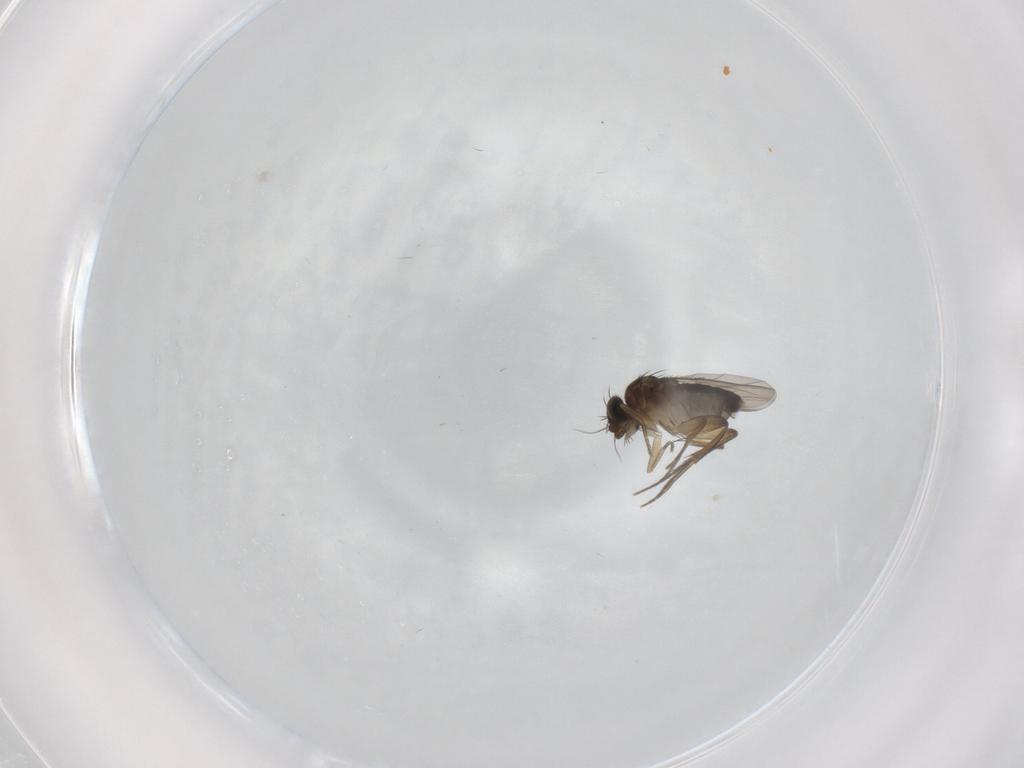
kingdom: Animalia
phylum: Arthropoda
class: Insecta
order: Diptera
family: Phoridae
